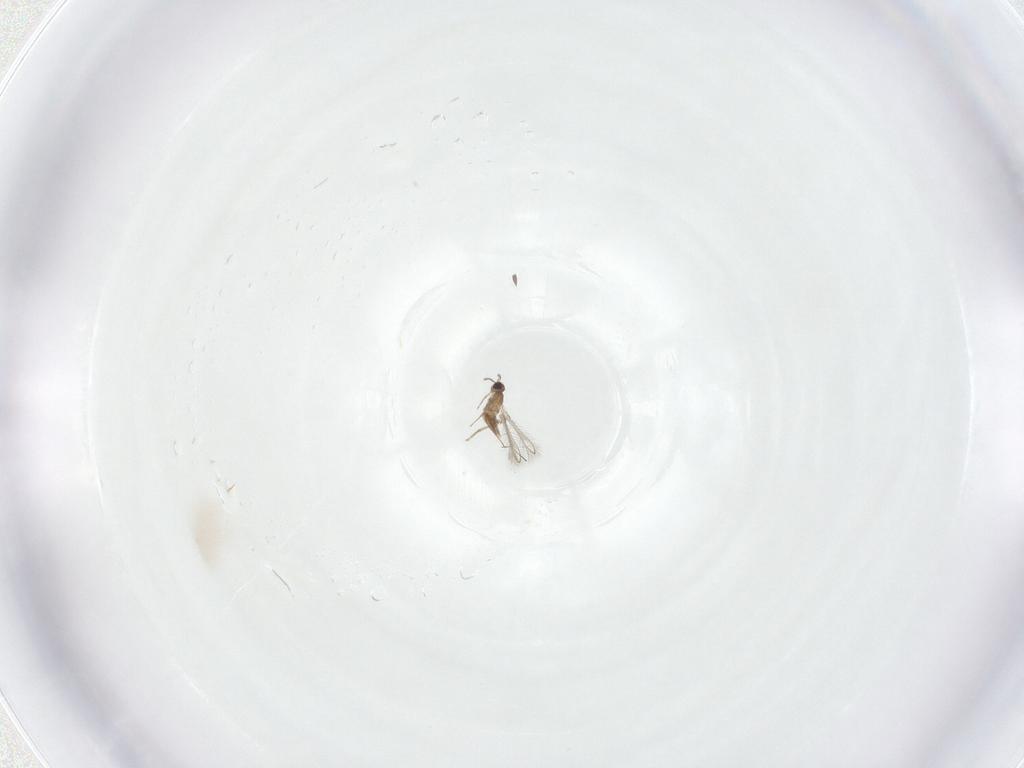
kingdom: Animalia
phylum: Arthropoda
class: Insecta
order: Hymenoptera
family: Mymaridae
